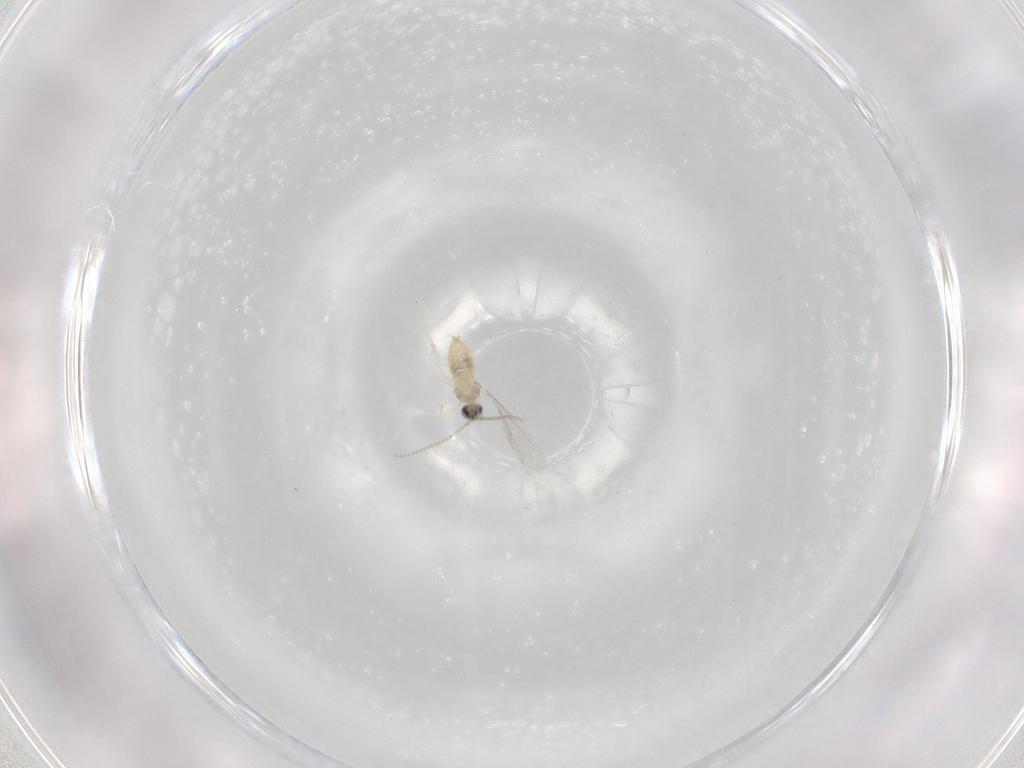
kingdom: Animalia
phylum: Arthropoda
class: Insecta
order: Diptera
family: Cecidomyiidae
